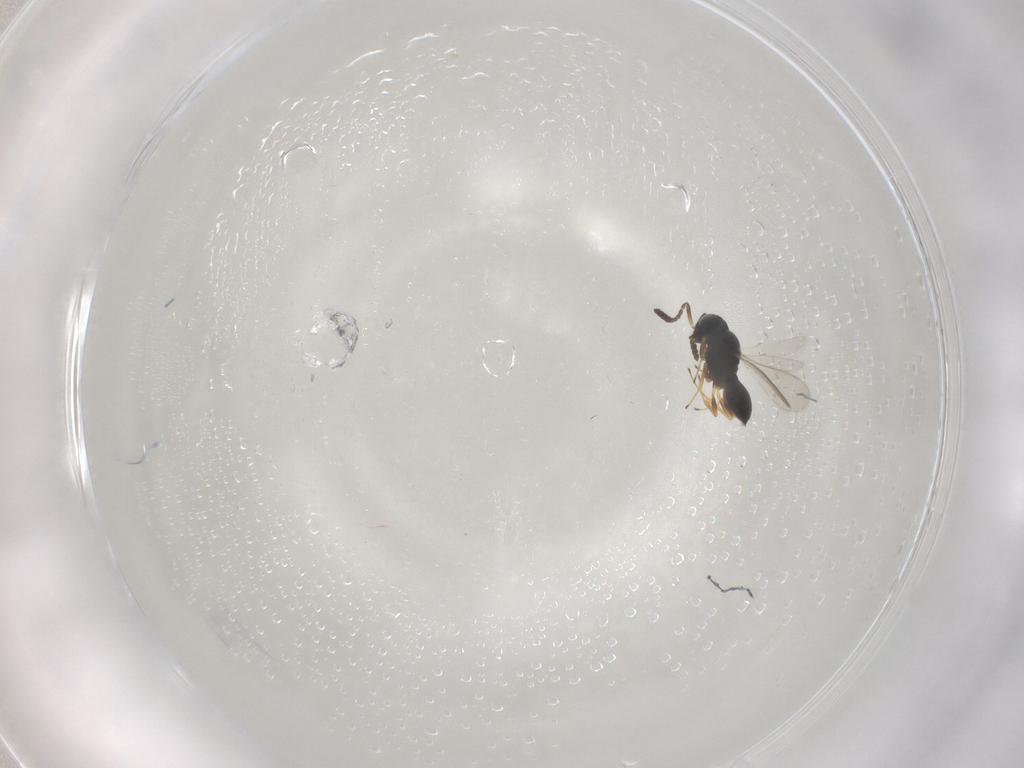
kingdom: Animalia
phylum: Arthropoda
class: Insecta
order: Hymenoptera
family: Scelionidae
